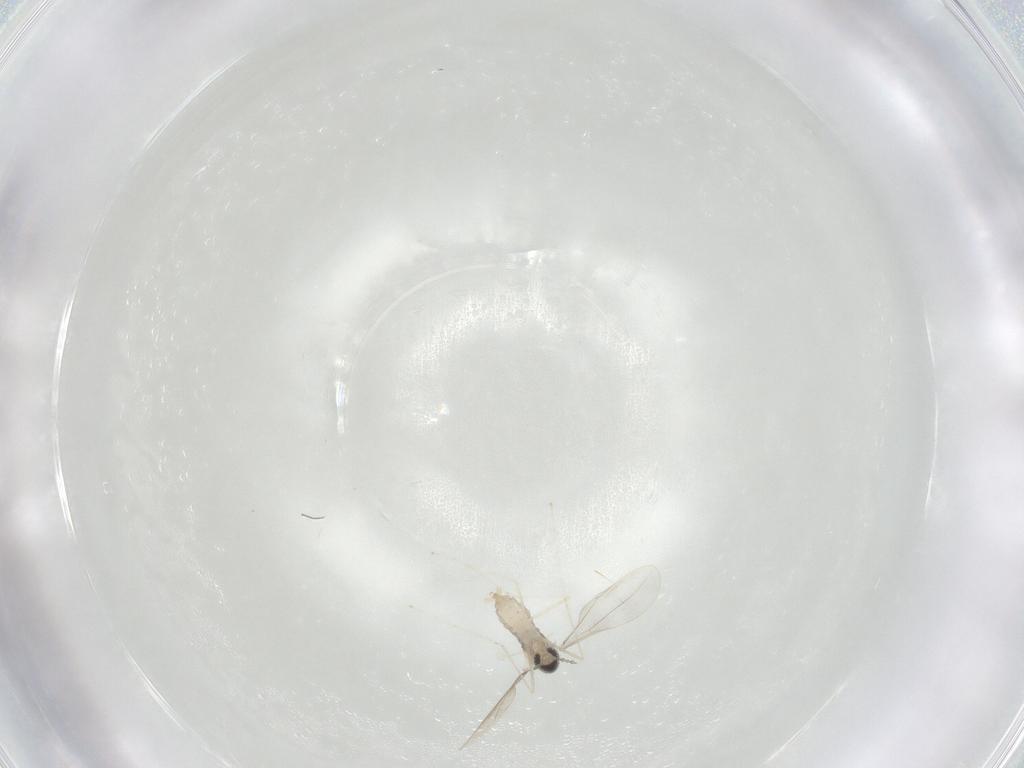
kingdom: Animalia
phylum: Arthropoda
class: Insecta
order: Diptera
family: Cecidomyiidae
